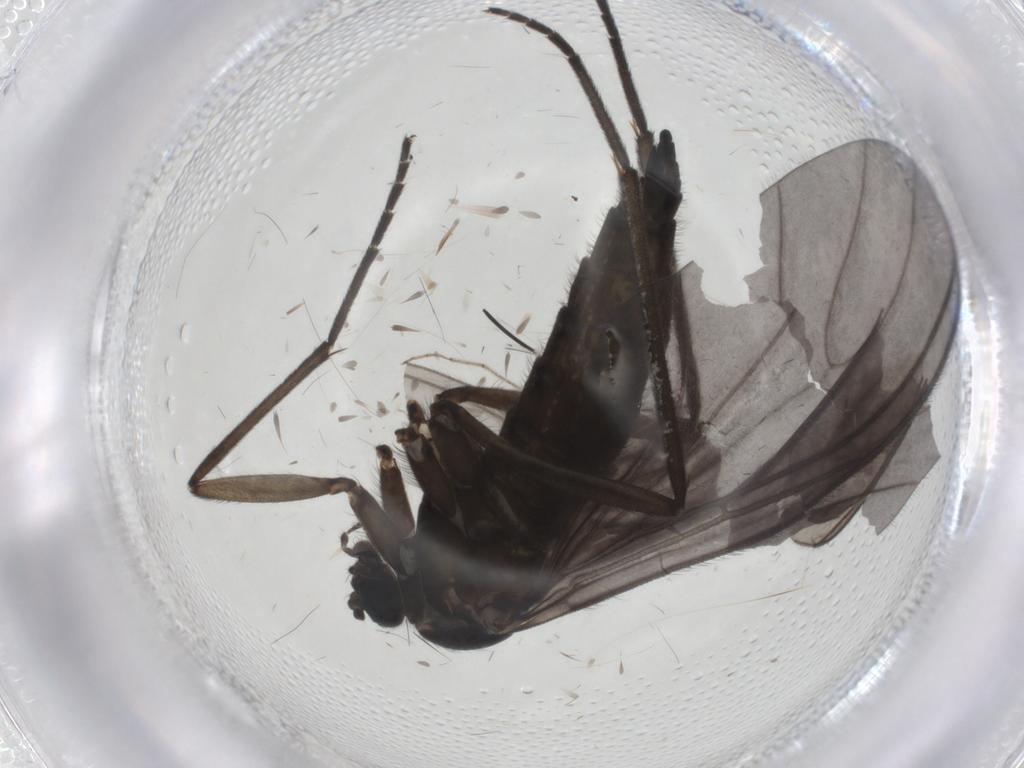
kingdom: Animalia
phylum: Arthropoda
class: Insecta
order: Diptera
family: Sciaridae
